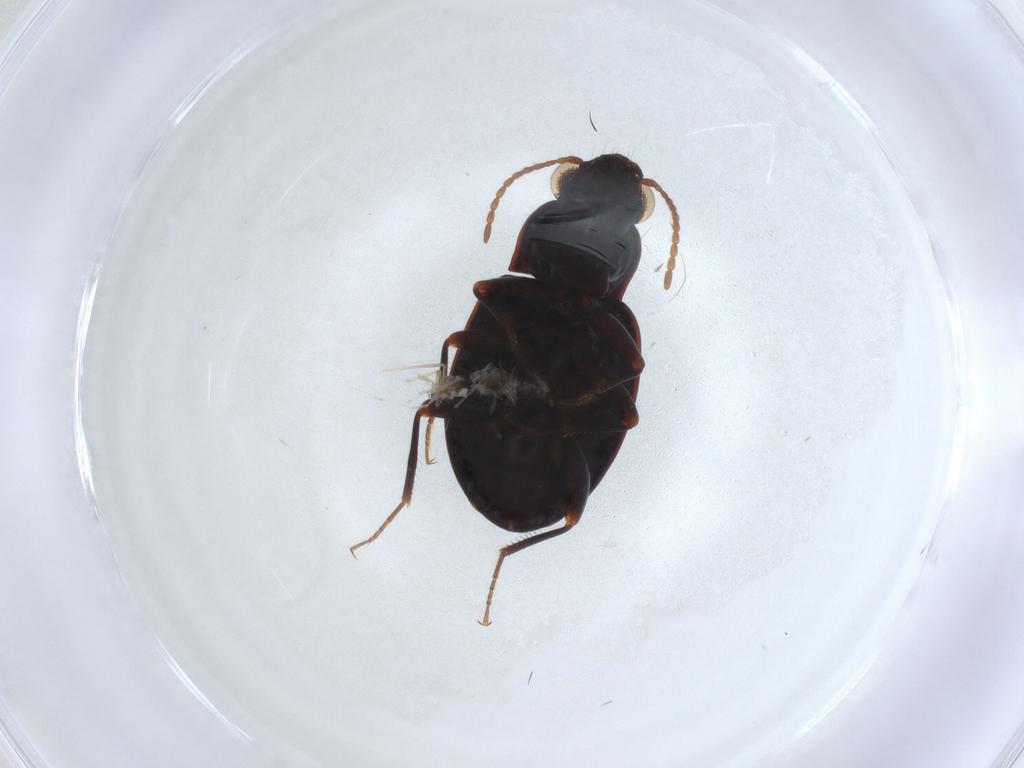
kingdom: Animalia
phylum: Arthropoda
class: Insecta
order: Coleoptera
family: Carabidae
